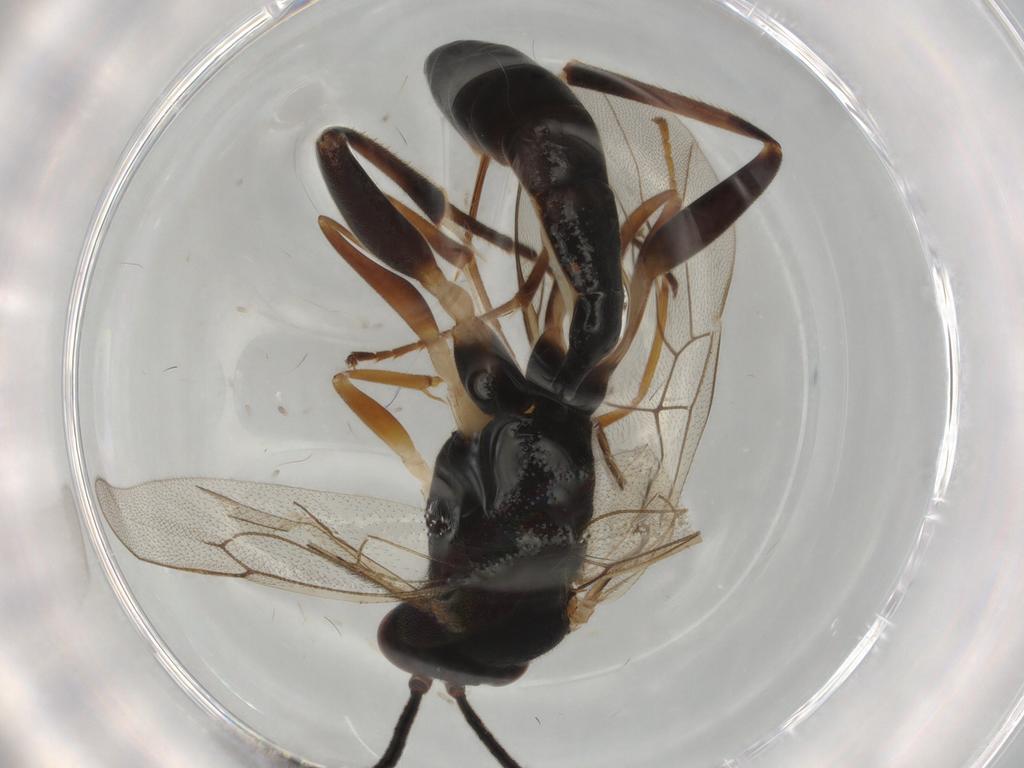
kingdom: Animalia
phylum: Arthropoda
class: Insecta
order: Hymenoptera
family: Ichneumonidae
